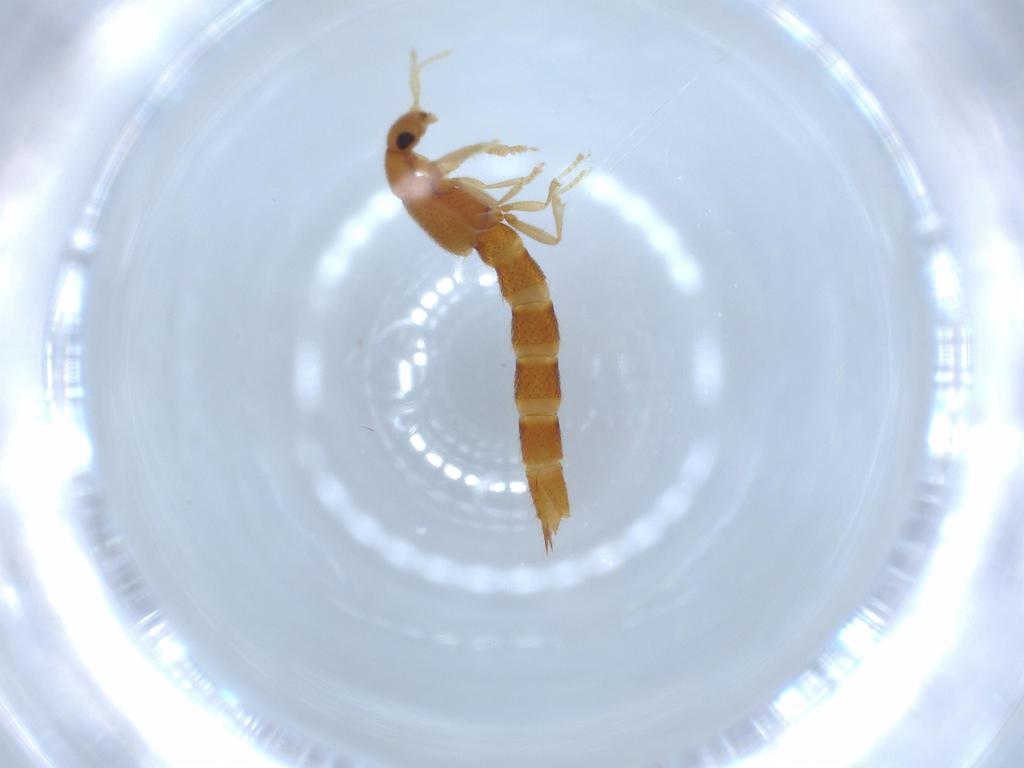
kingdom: Animalia
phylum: Arthropoda
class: Insecta
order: Coleoptera
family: Staphylinidae
